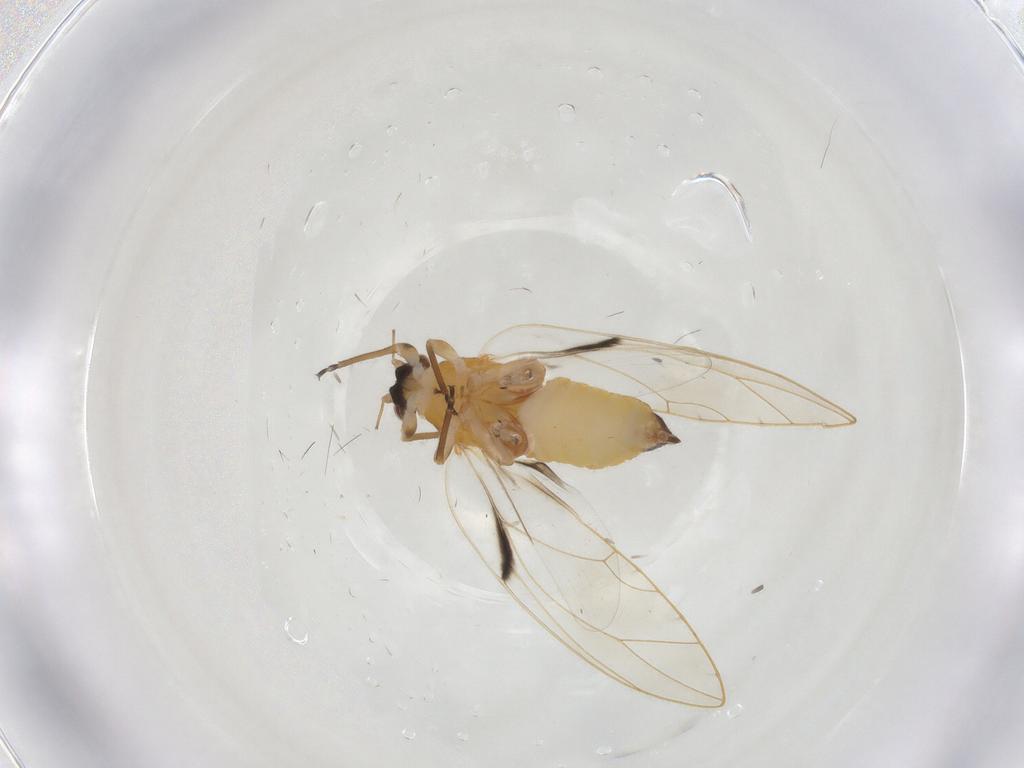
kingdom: Animalia
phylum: Arthropoda
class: Insecta
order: Hemiptera
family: Psylloidea_incertae_sedis
